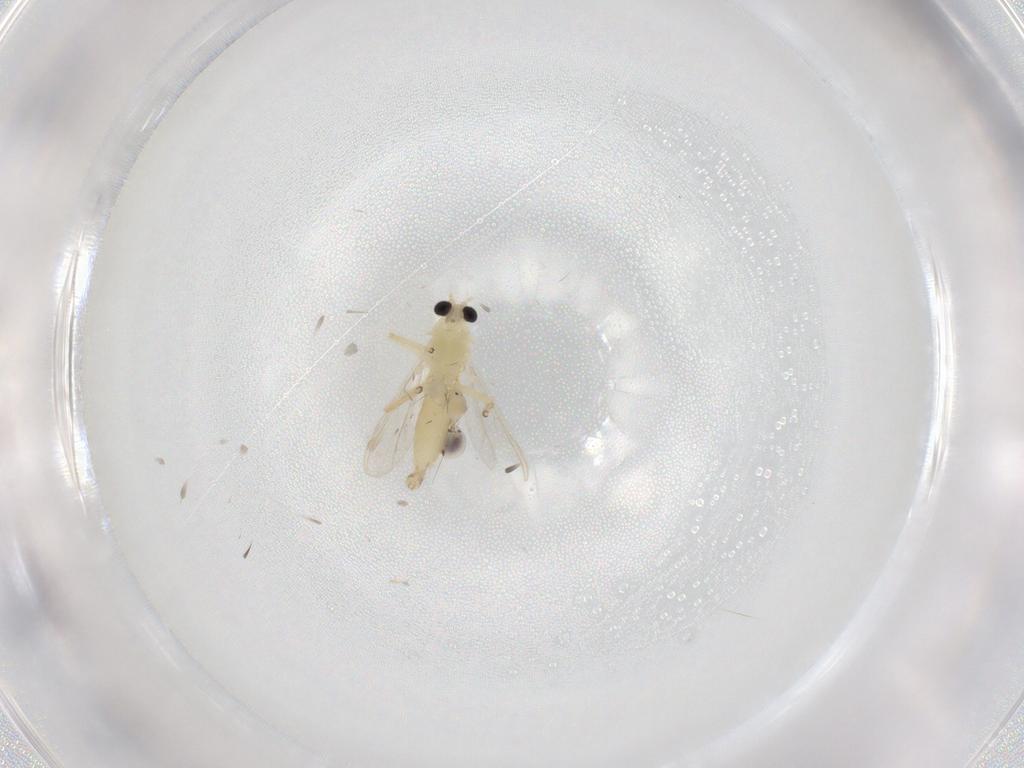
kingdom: Animalia
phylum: Arthropoda
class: Insecta
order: Diptera
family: Chironomidae
